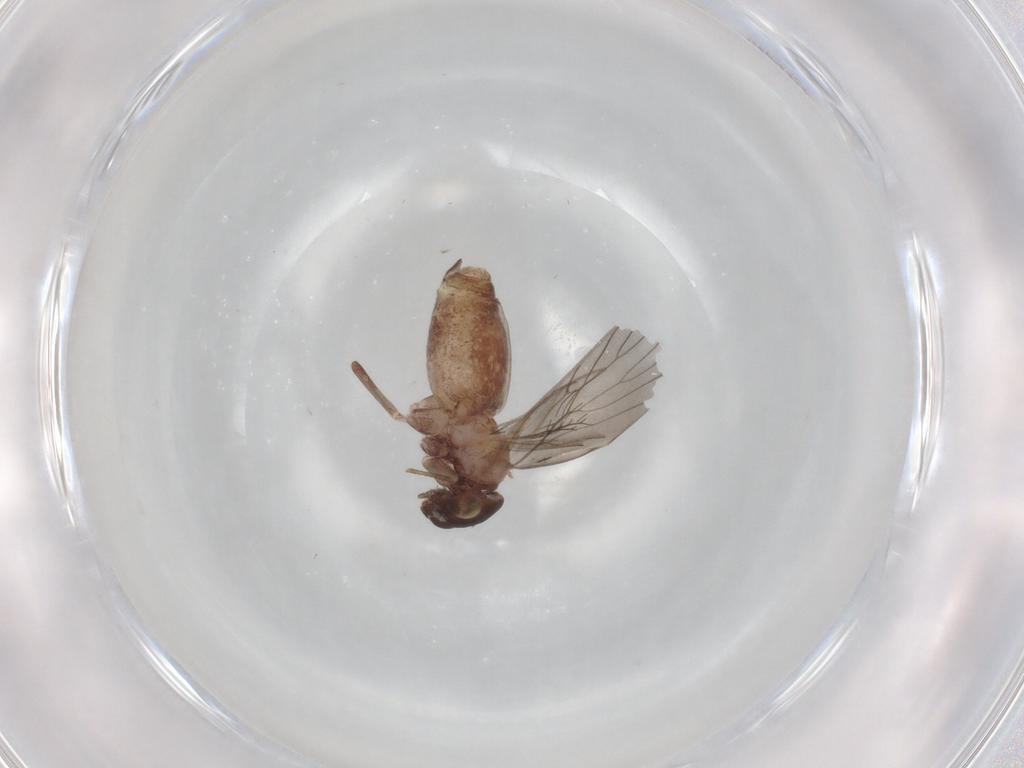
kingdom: Animalia
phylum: Arthropoda
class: Insecta
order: Psocodea
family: Lepidopsocidae
